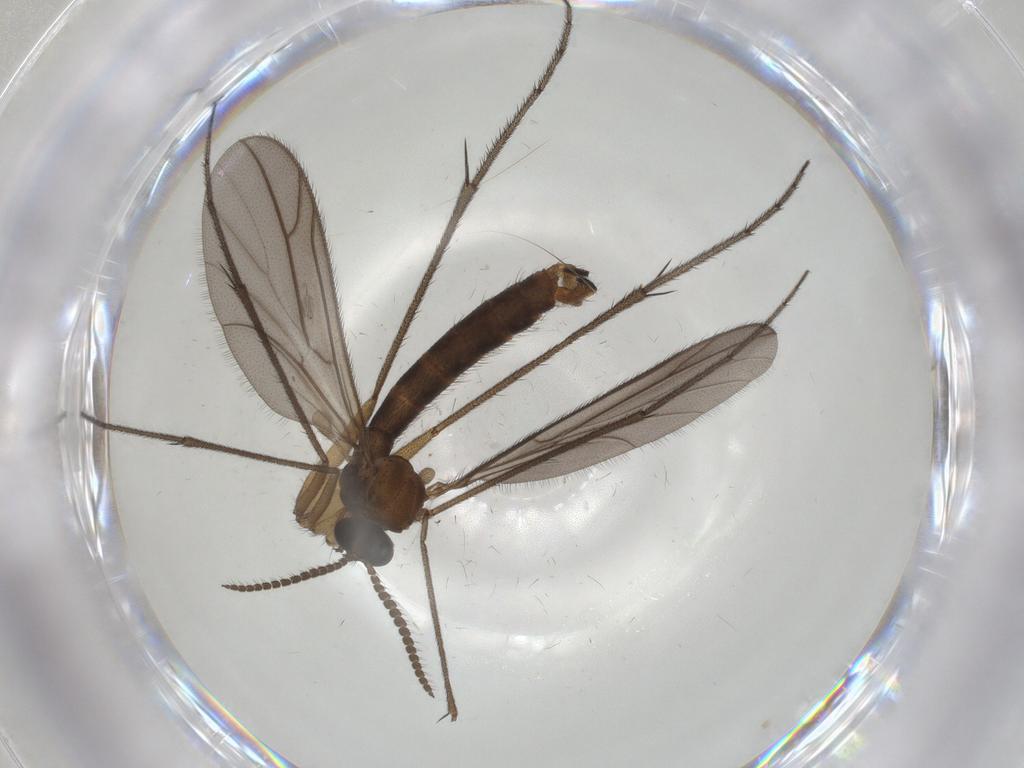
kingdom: Animalia
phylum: Arthropoda
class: Insecta
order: Diptera
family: Ditomyiidae
